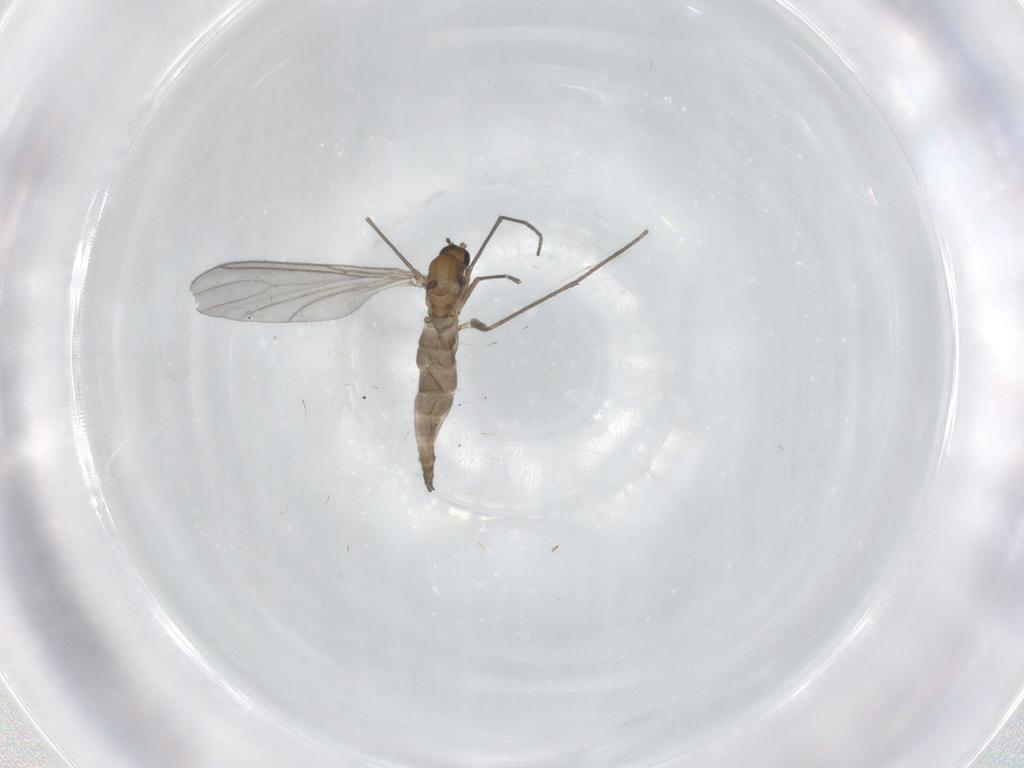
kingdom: Animalia
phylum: Arthropoda
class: Insecta
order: Diptera
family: Sciaridae
